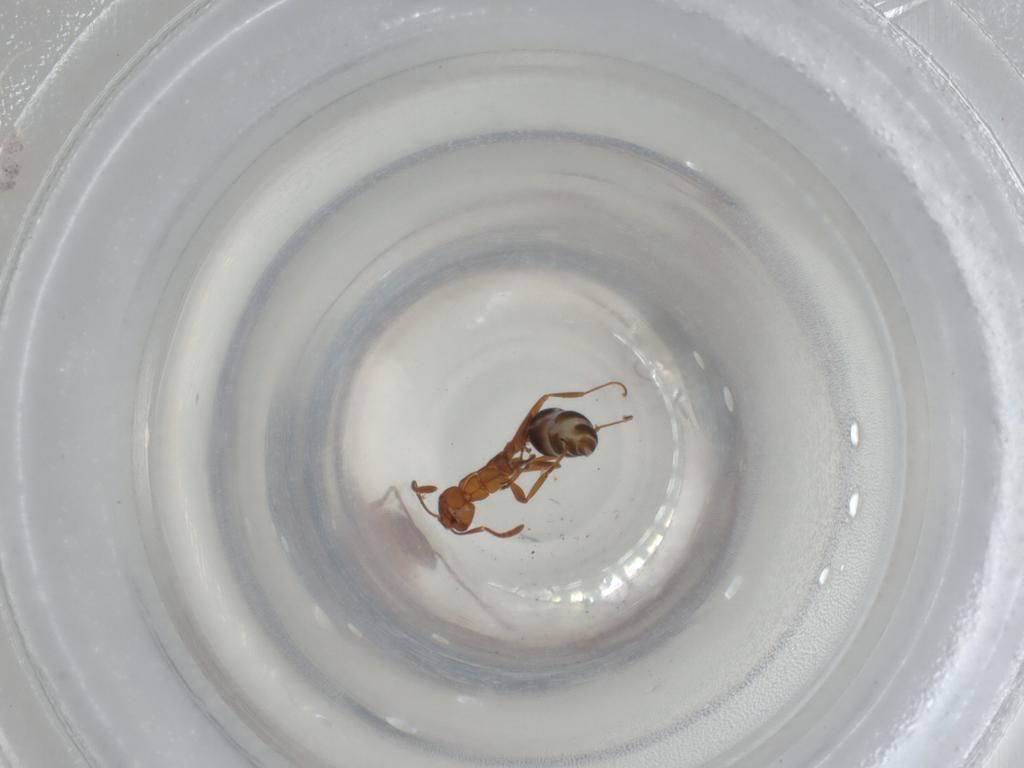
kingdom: Animalia
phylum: Arthropoda
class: Insecta
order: Hymenoptera
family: Formicidae
